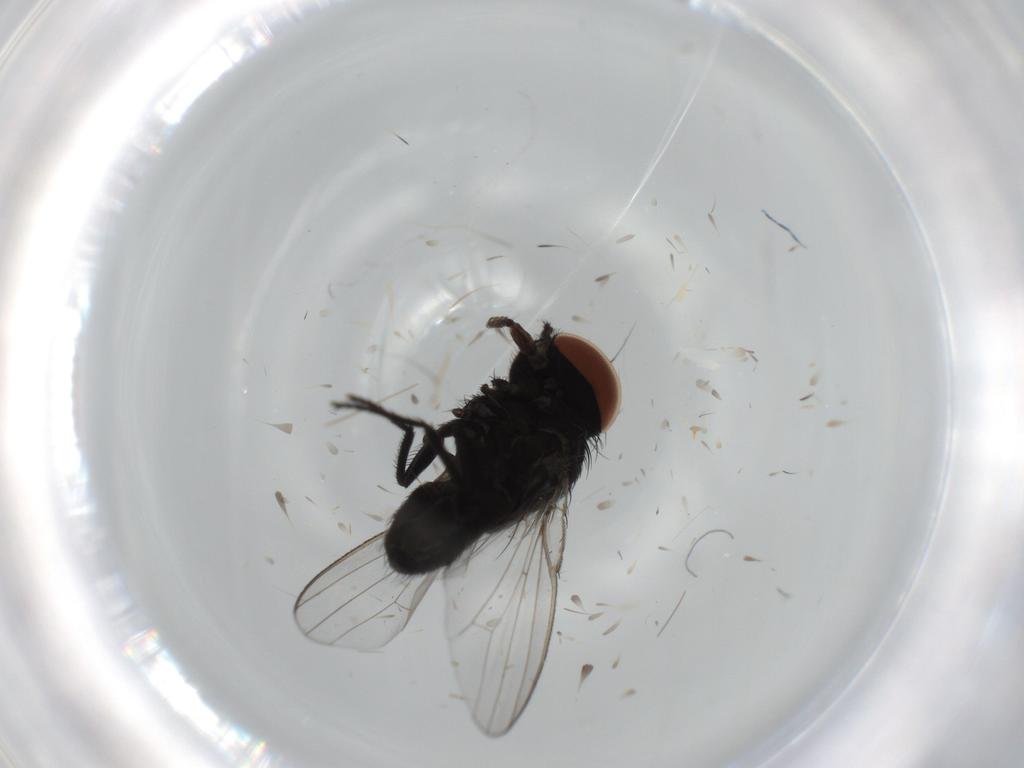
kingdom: Animalia
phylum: Arthropoda
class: Insecta
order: Diptera
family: Milichiidae
